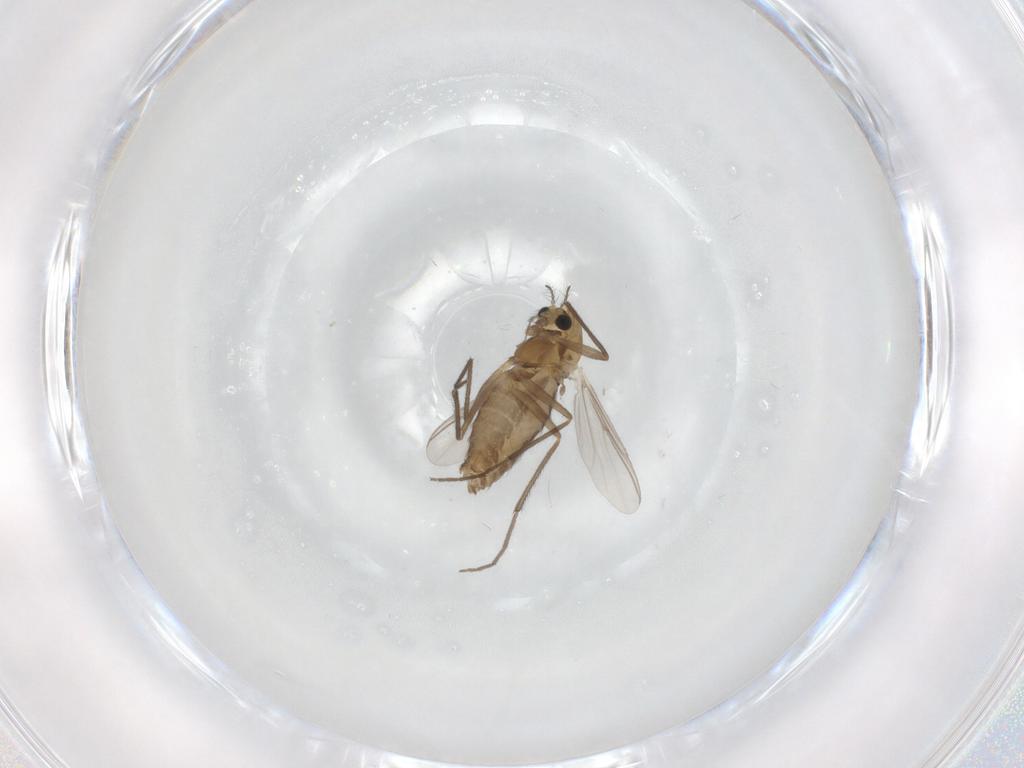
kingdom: Animalia
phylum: Arthropoda
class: Insecta
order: Diptera
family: Chironomidae
